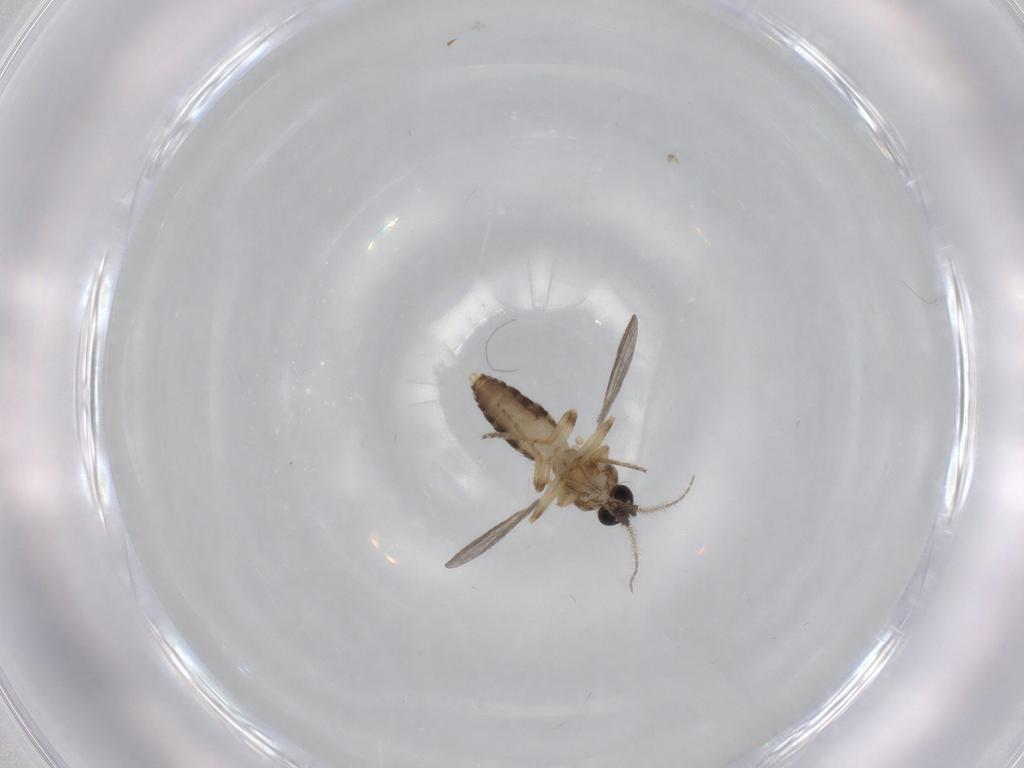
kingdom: Animalia
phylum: Arthropoda
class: Insecta
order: Diptera
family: Ceratopogonidae
